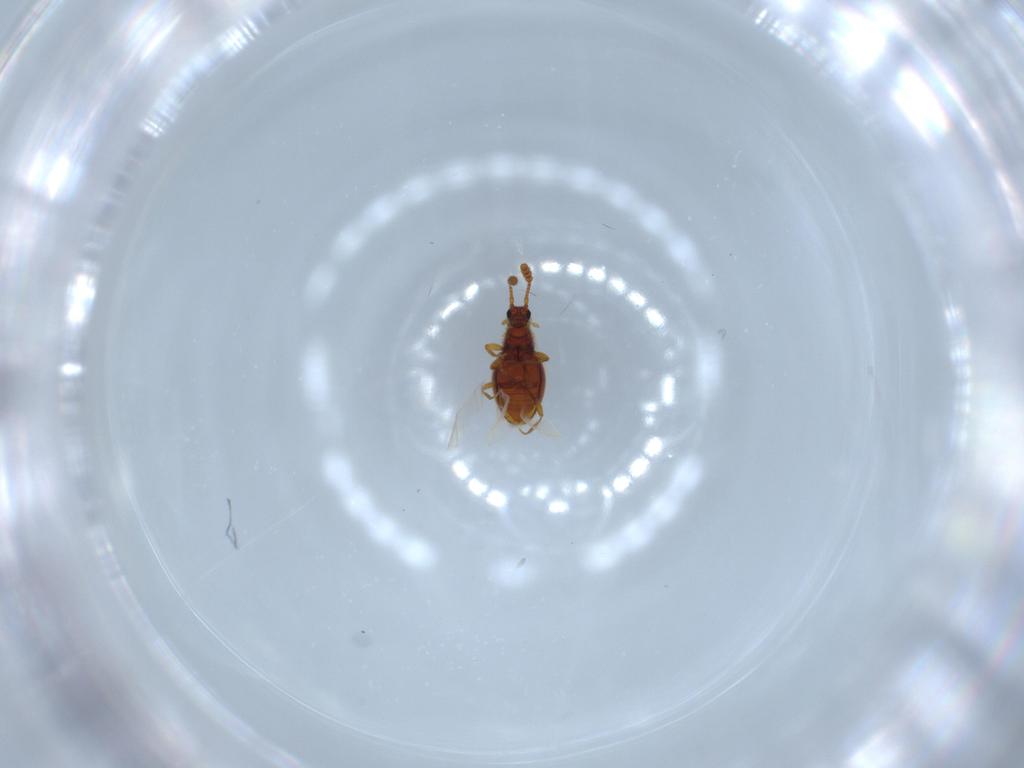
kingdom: Animalia
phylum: Arthropoda
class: Insecta
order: Coleoptera
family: Erotylidae
